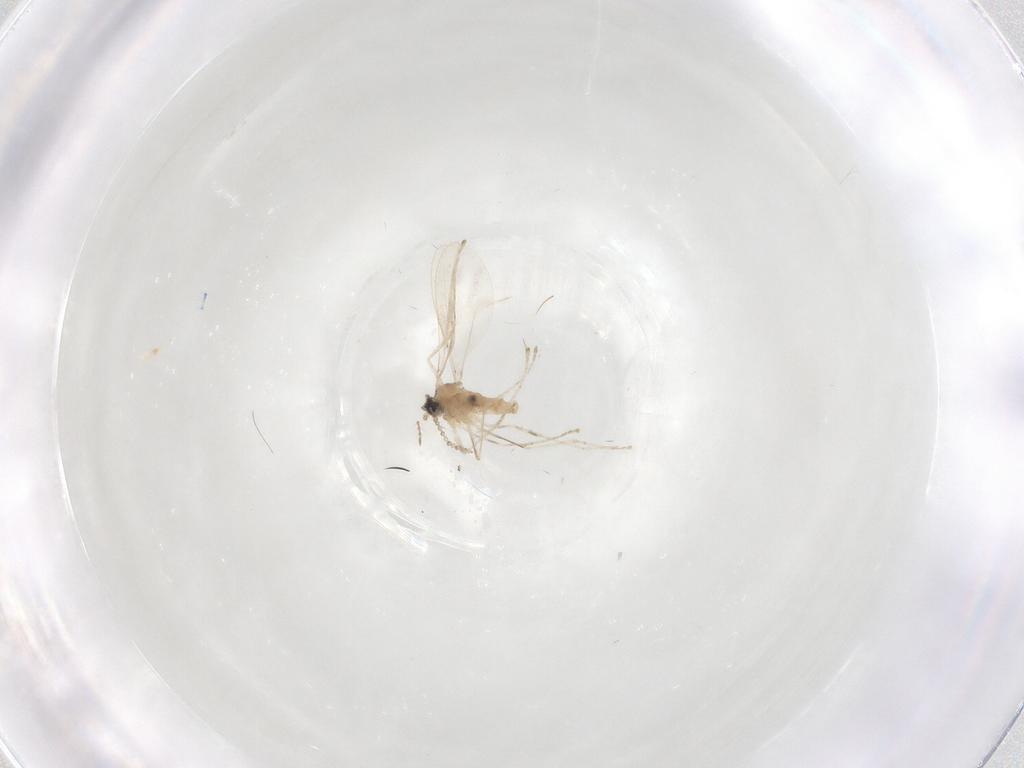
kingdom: Animalia
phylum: Arthropoda
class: Insecta
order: Diptera
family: Cecidomyiidae
